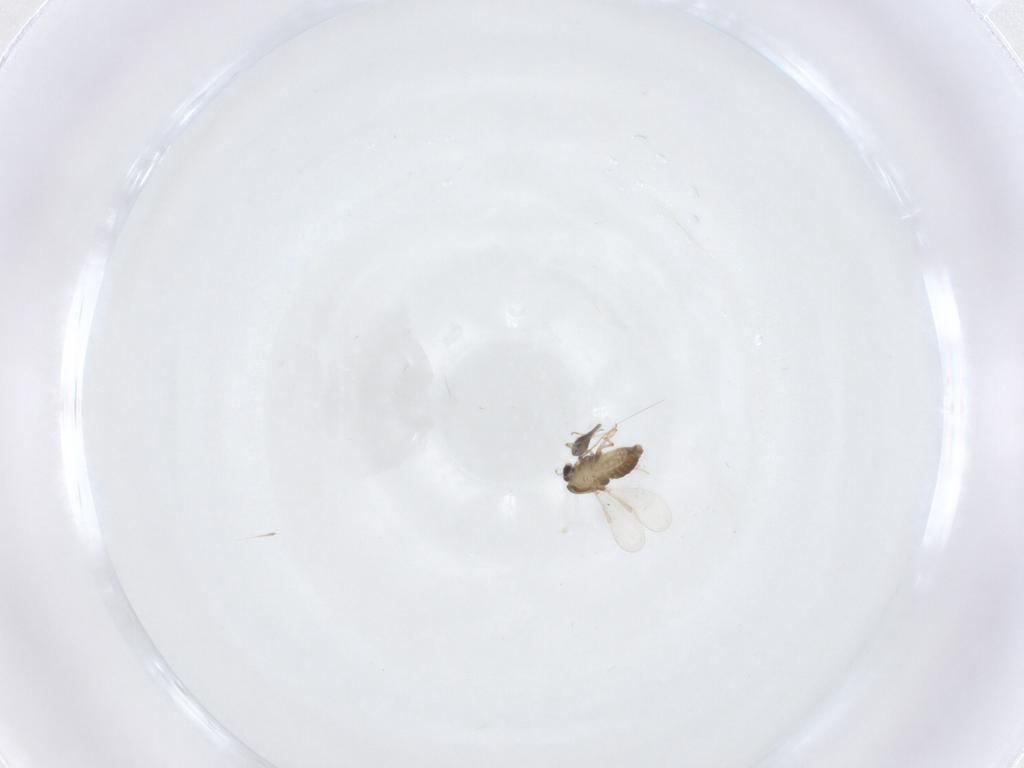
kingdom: Animalia
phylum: Arthropoda
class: Insecta
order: Diptera
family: Chironomidae
